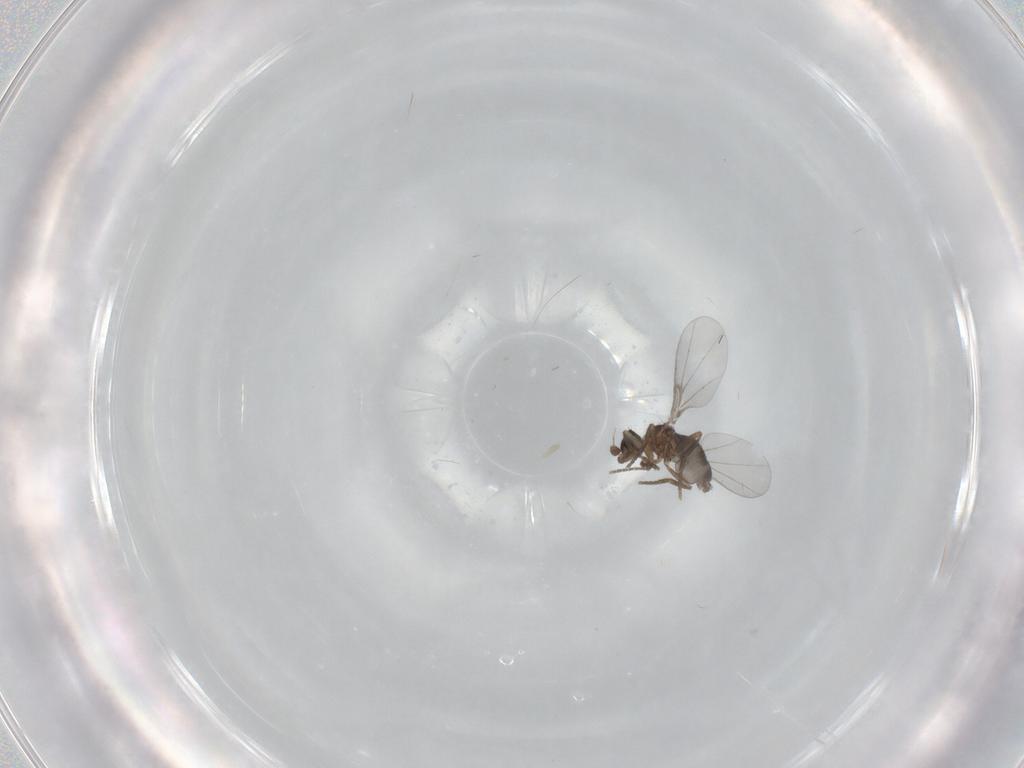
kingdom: Animalia
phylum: Arthropoda
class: Insecta
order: Diptera
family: Phoridae
